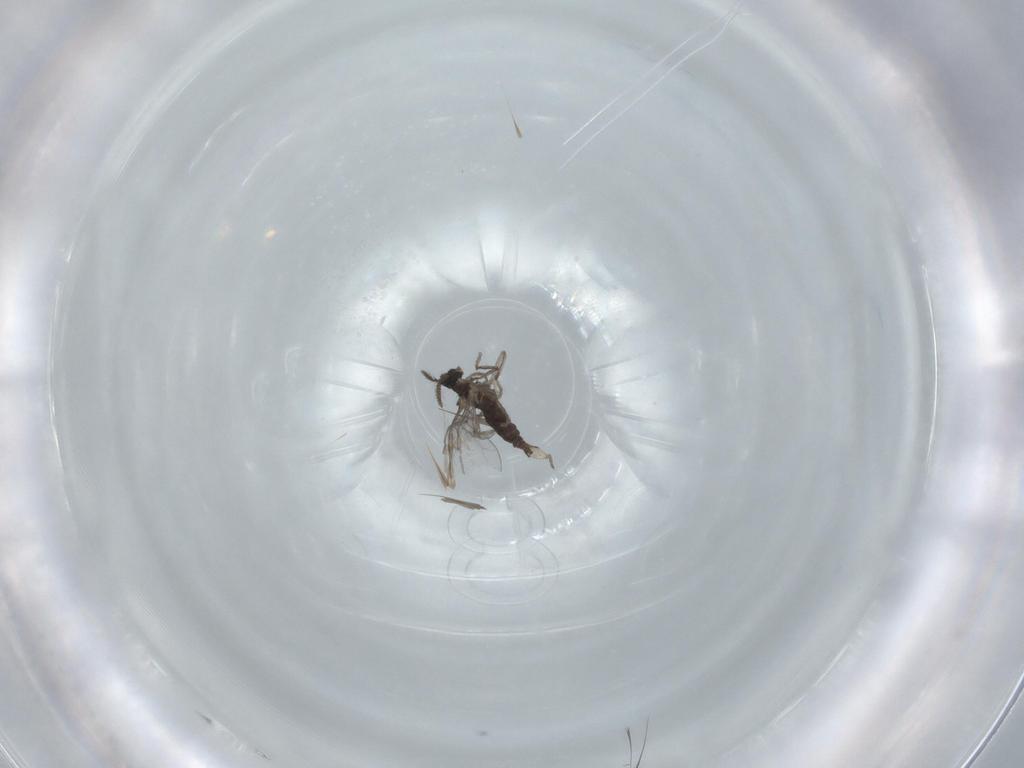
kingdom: Animalia
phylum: Arthropoda
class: Insecta
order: Diptera
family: Cecidomyiidae
